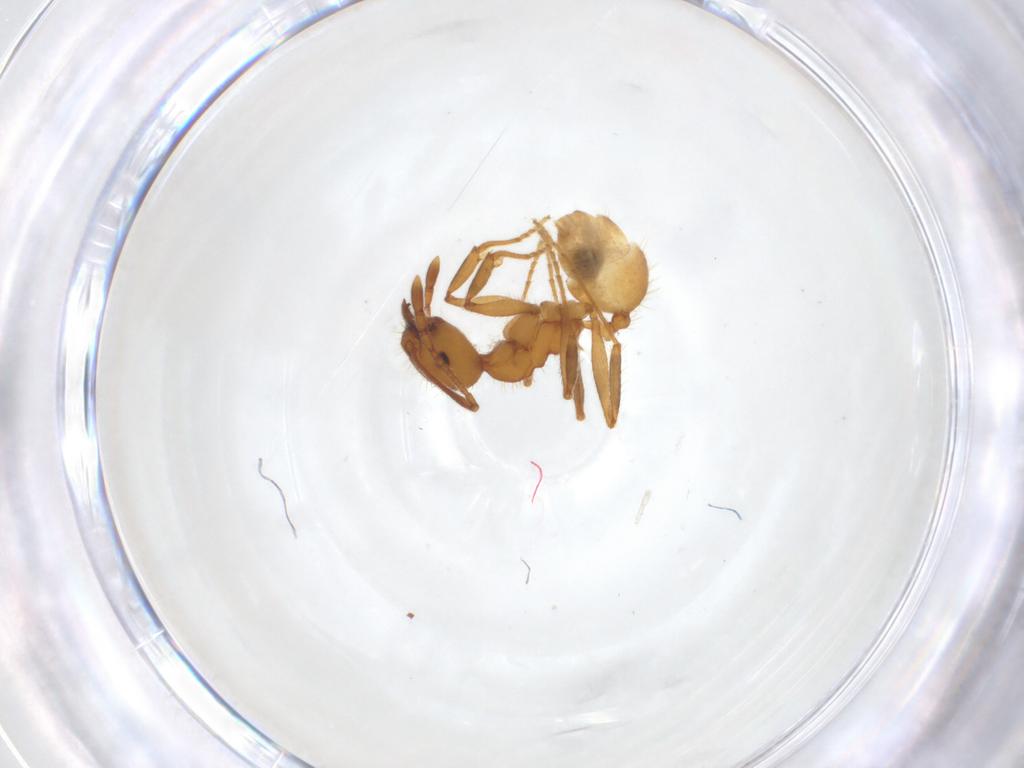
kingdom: Animalia
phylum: Arthropoda
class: Insecta
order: Hymenoptera
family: Formicidae
